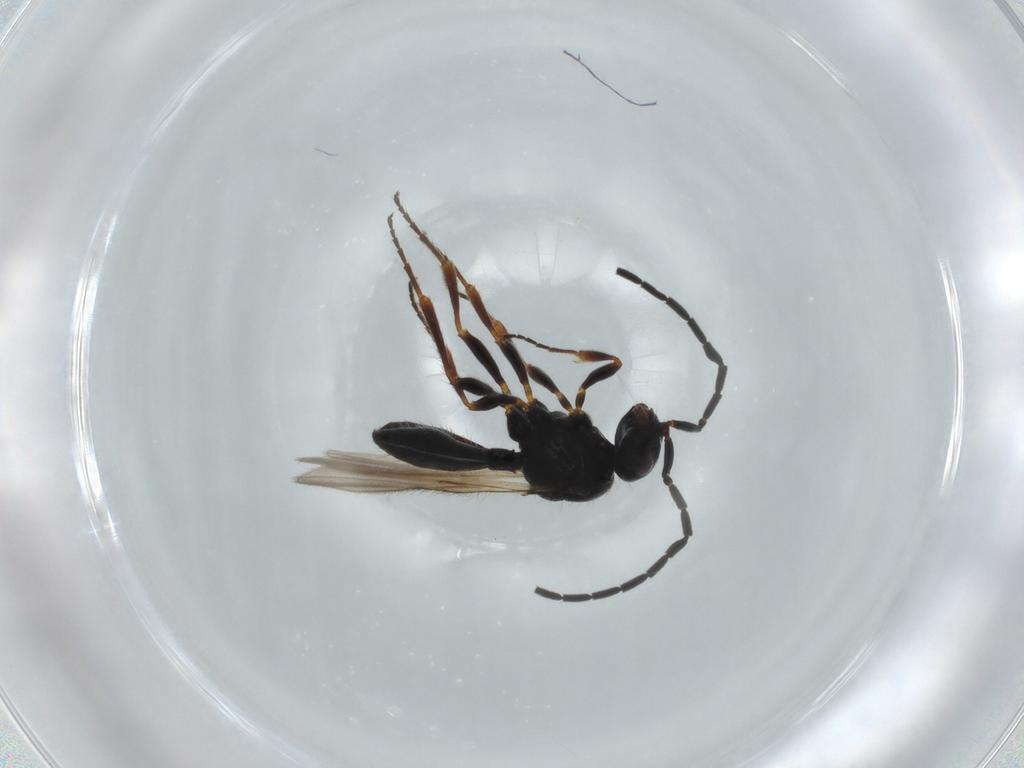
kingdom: Animalia
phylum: Arthropoda
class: Insecta
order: Hymenoptera
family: Scelionidae
